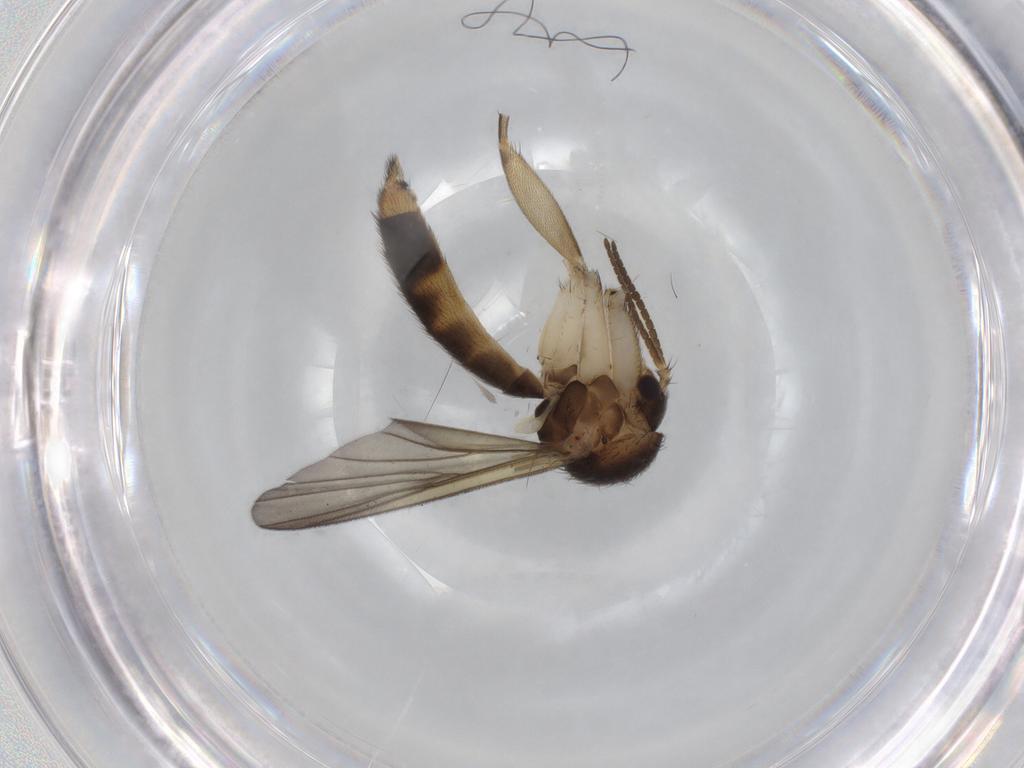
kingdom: Animalia
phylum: Arthropoda
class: Insecta
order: Diptera
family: Mycetophilidae
